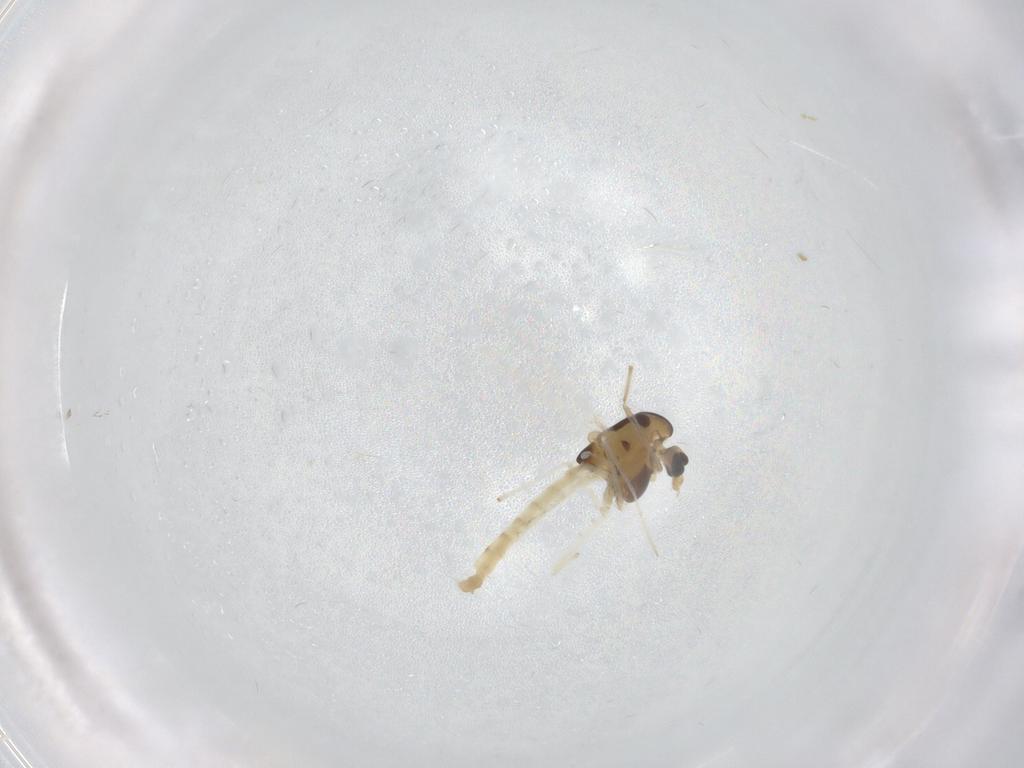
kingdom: Animalia
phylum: Arthropoda
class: Insecta
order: Diptera
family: Chironomidae
